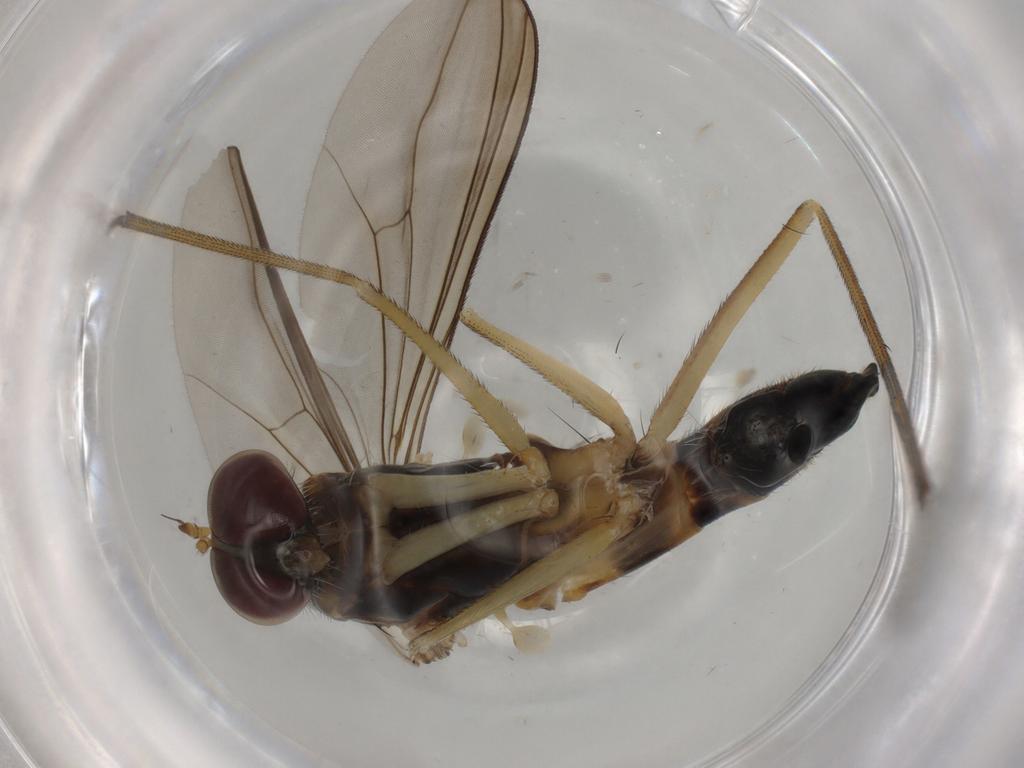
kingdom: Animalia
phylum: Arthropoda
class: Insecta
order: Diptera
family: Dolichopodidae
